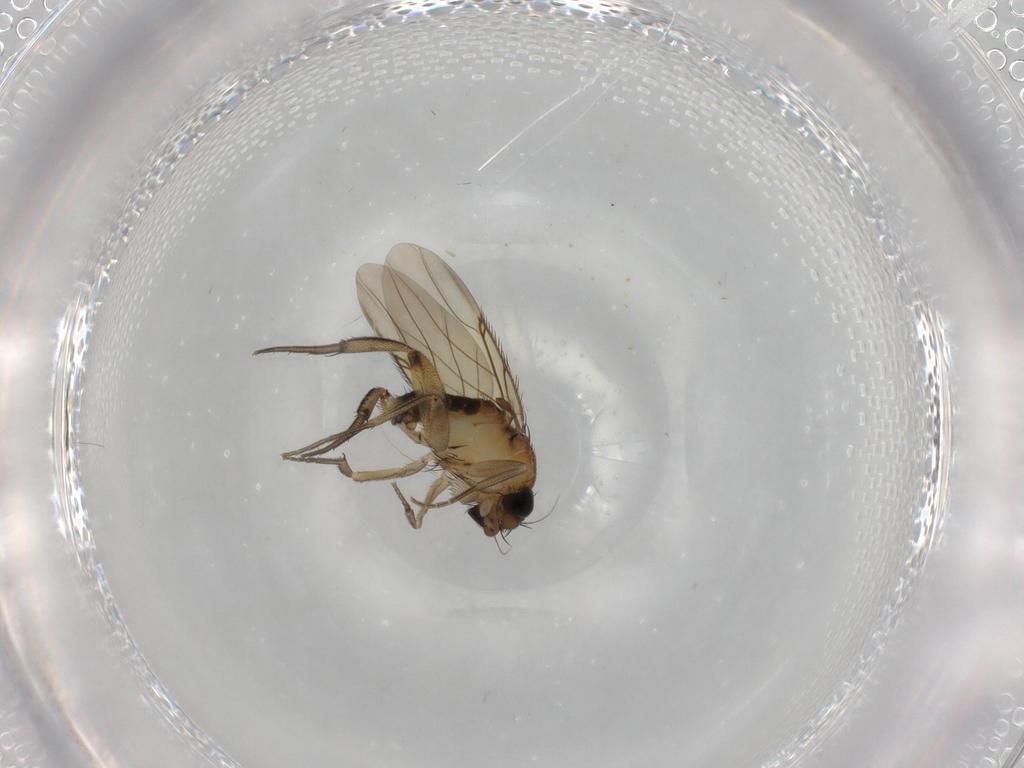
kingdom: Animalia
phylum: Arthropoda
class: Insecta
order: Diptera
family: Phoridae
